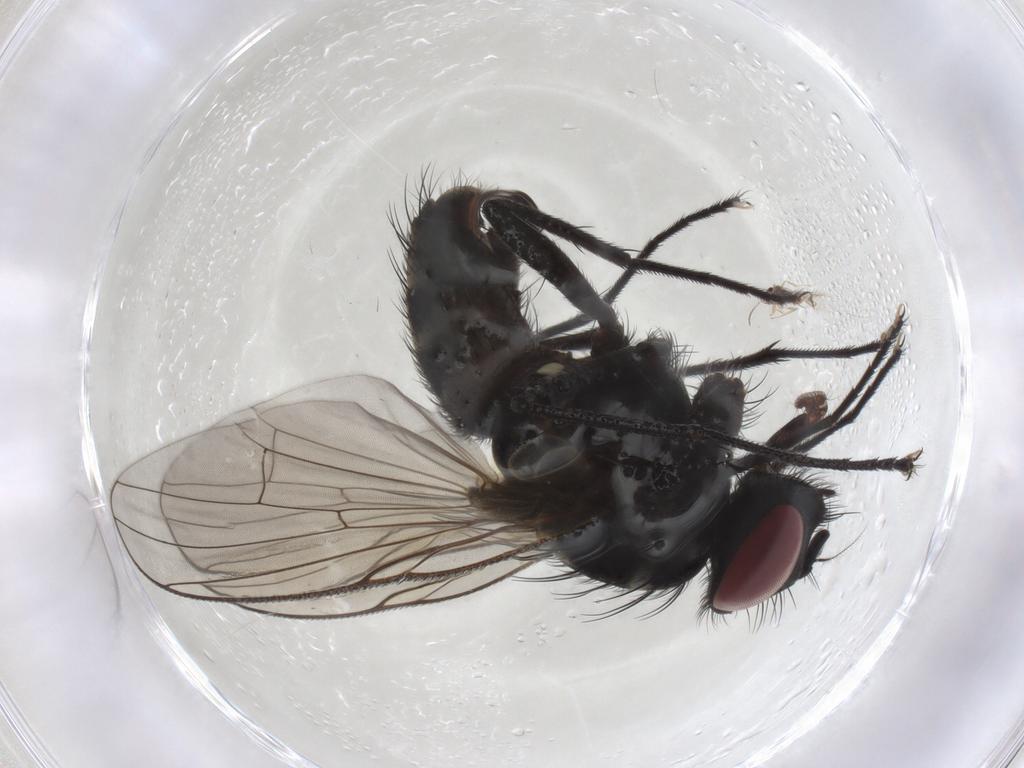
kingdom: Animalia
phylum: Arthropoda
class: Insecta
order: Diptera
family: Muscidae
